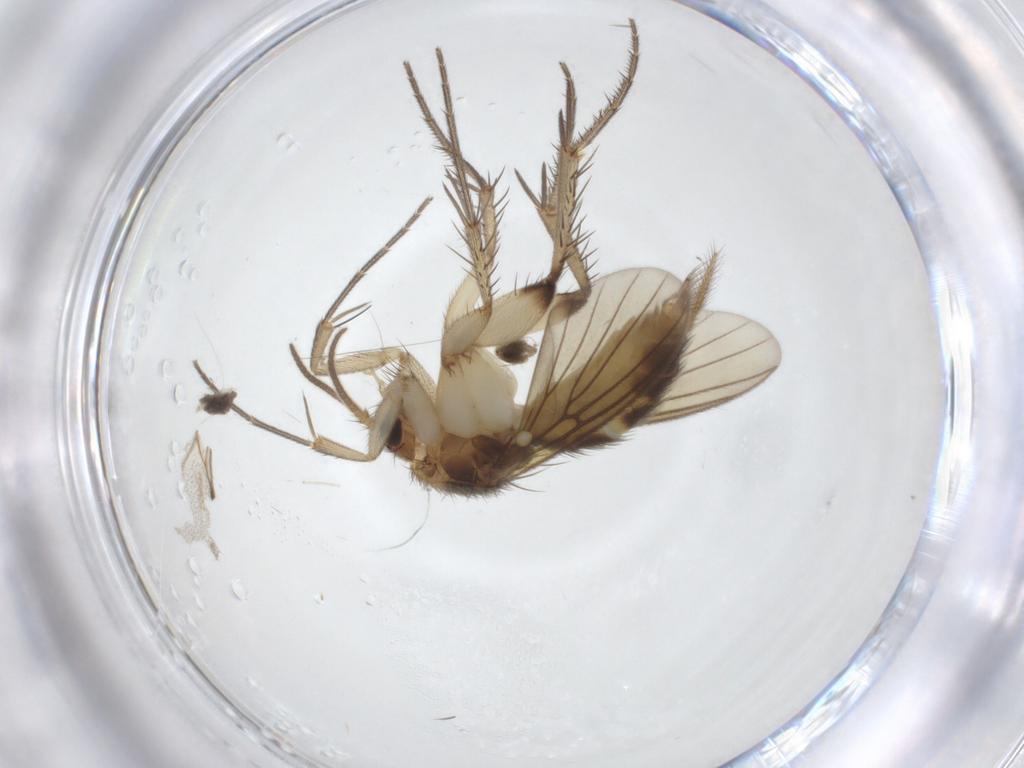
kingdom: Animalia
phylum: Arthropoda
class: Insecta
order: Diptera
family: Mycetophilidae
